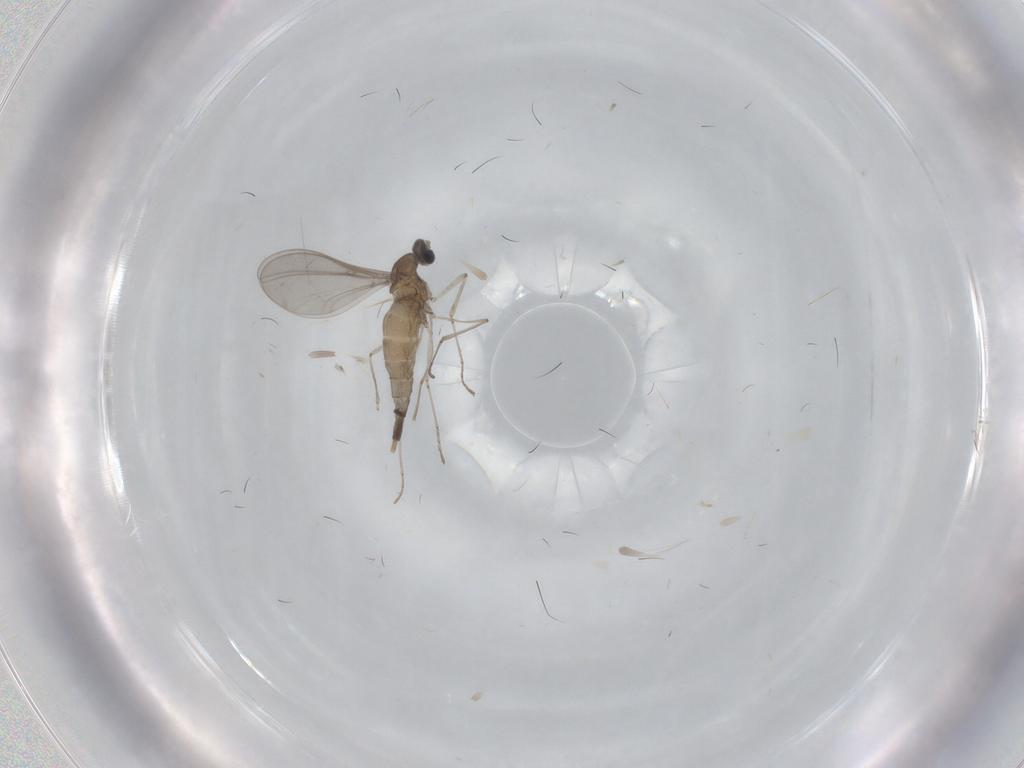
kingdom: Animalia
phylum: Arthropoda
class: Insecta
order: Diptera
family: Cecidomyiidae
